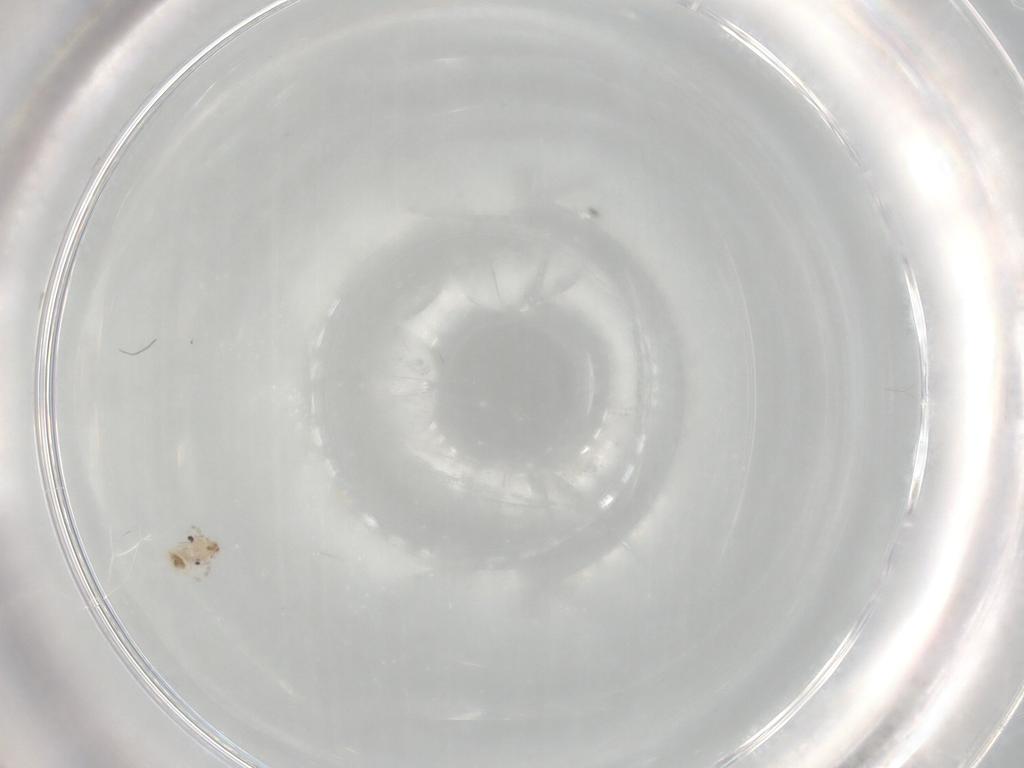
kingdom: Animalia
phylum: Arthropoda
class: Insecta
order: Psocodea
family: Psocidae
